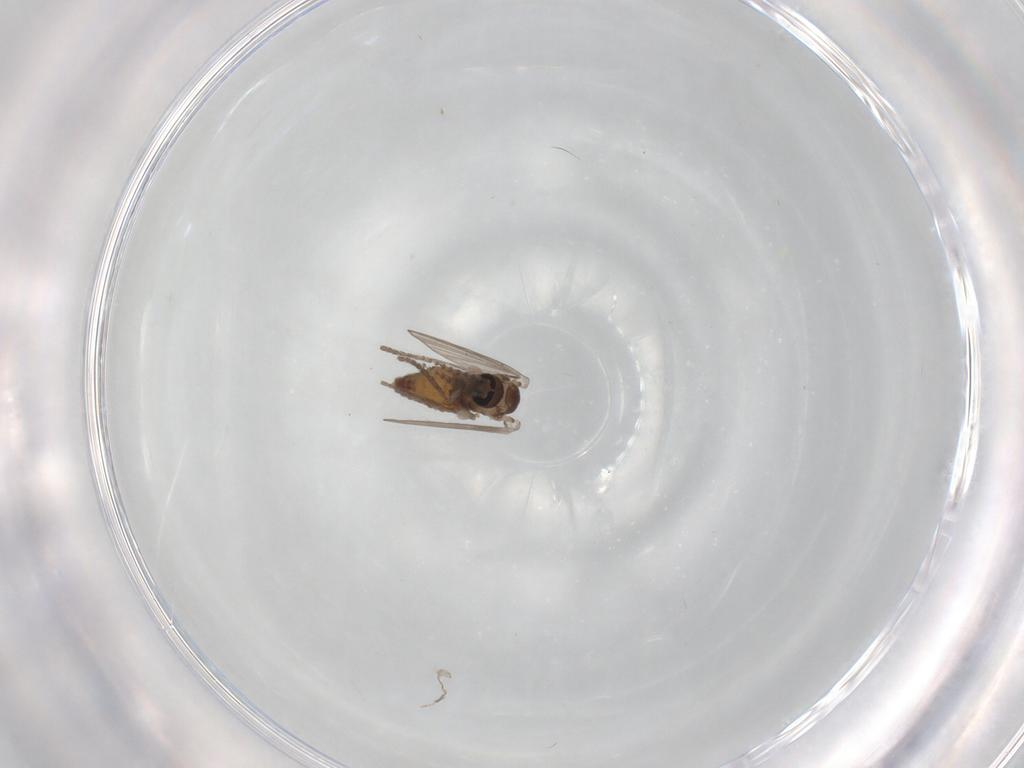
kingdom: Animalia
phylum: Arthropoda
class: Insecta
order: Diptera
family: Psychodidae
